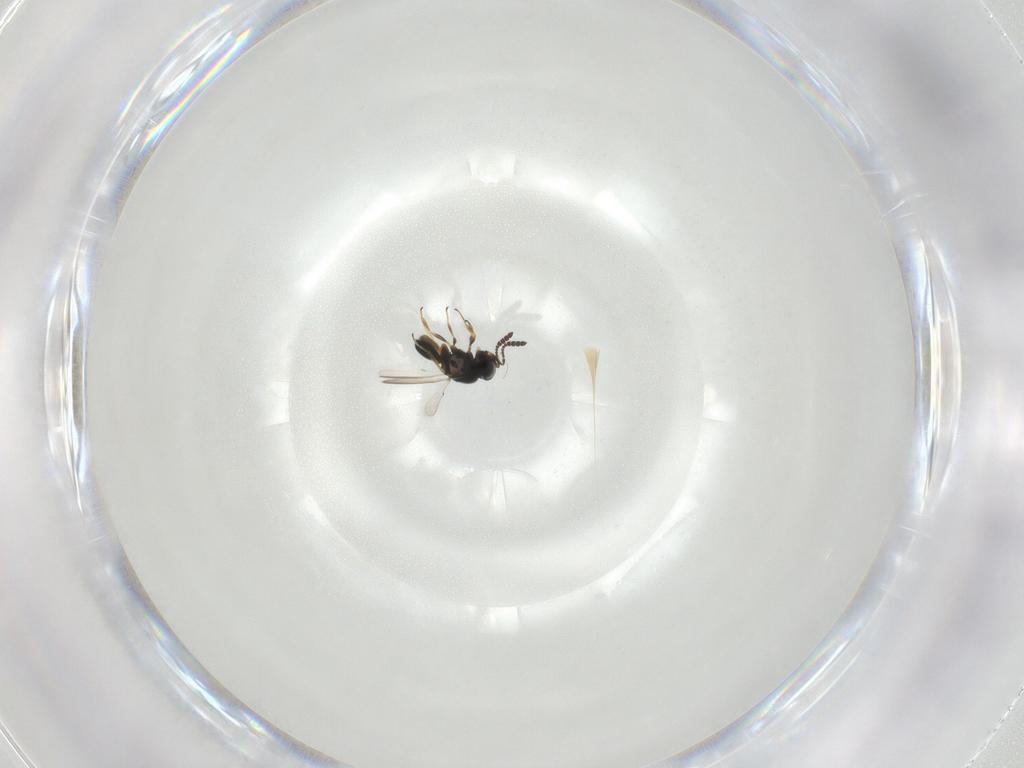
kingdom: Animalia
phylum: Arthropoda
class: Insecta
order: Hymenoptera
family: Scelionidae
